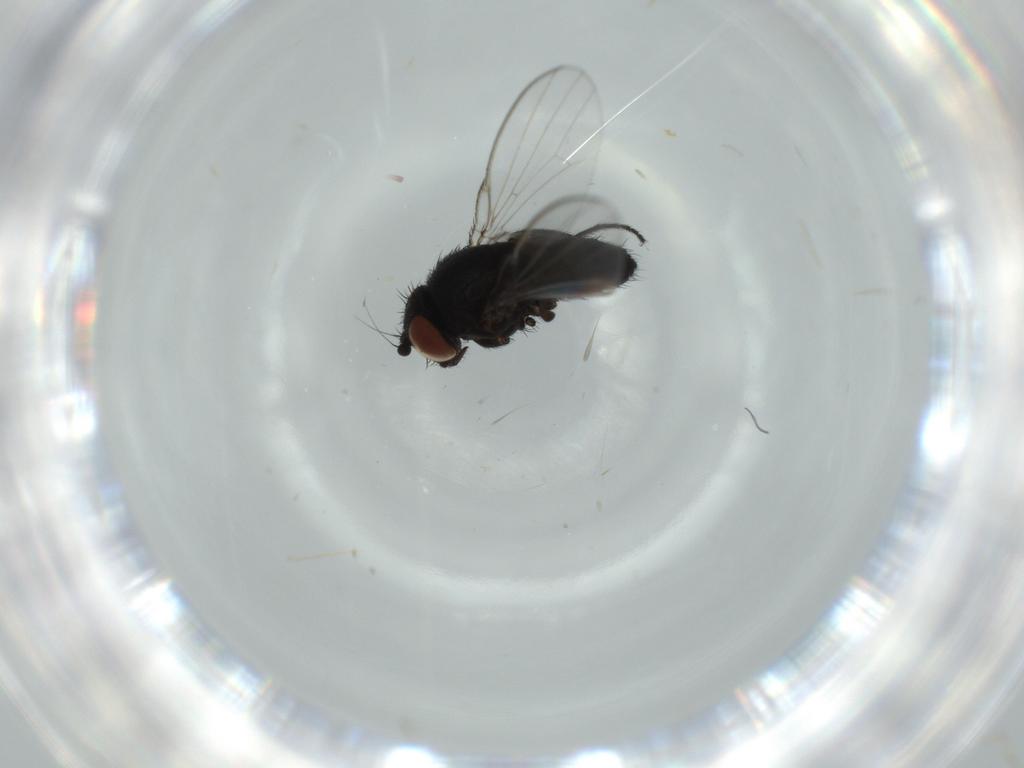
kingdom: Animalia
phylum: Arthropoda
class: Insecta
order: Diptera
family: Milichiidae
